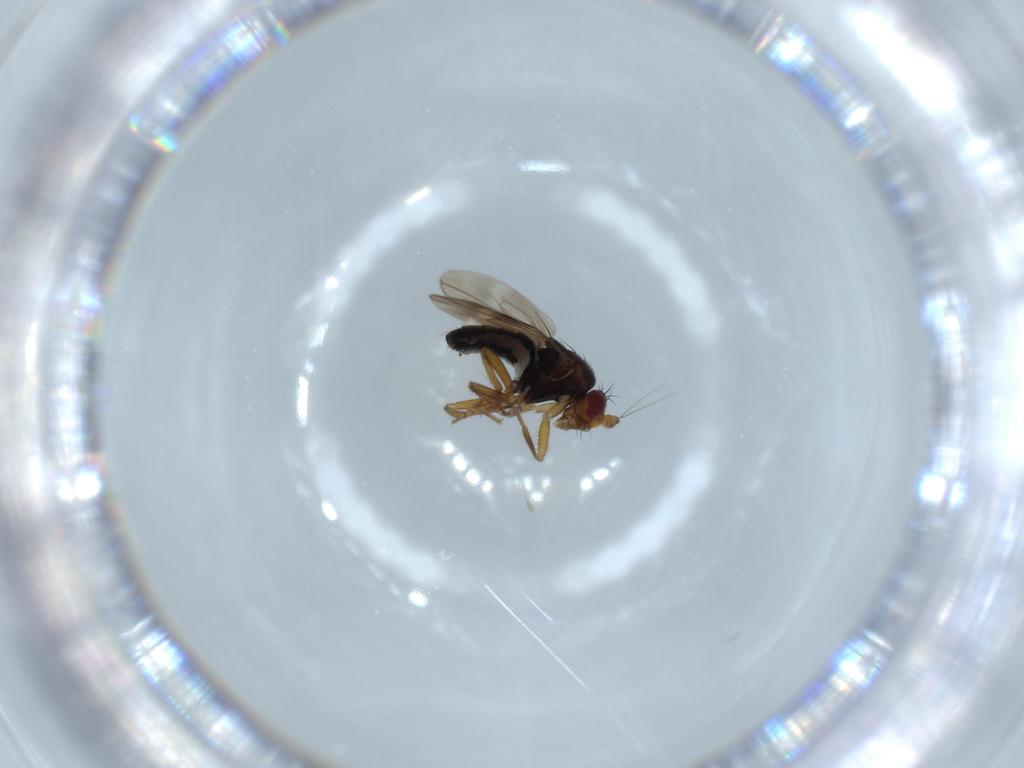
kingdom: Animalia
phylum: Arthropoda
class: Insecta
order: Diptera
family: Sphaeroceridae
